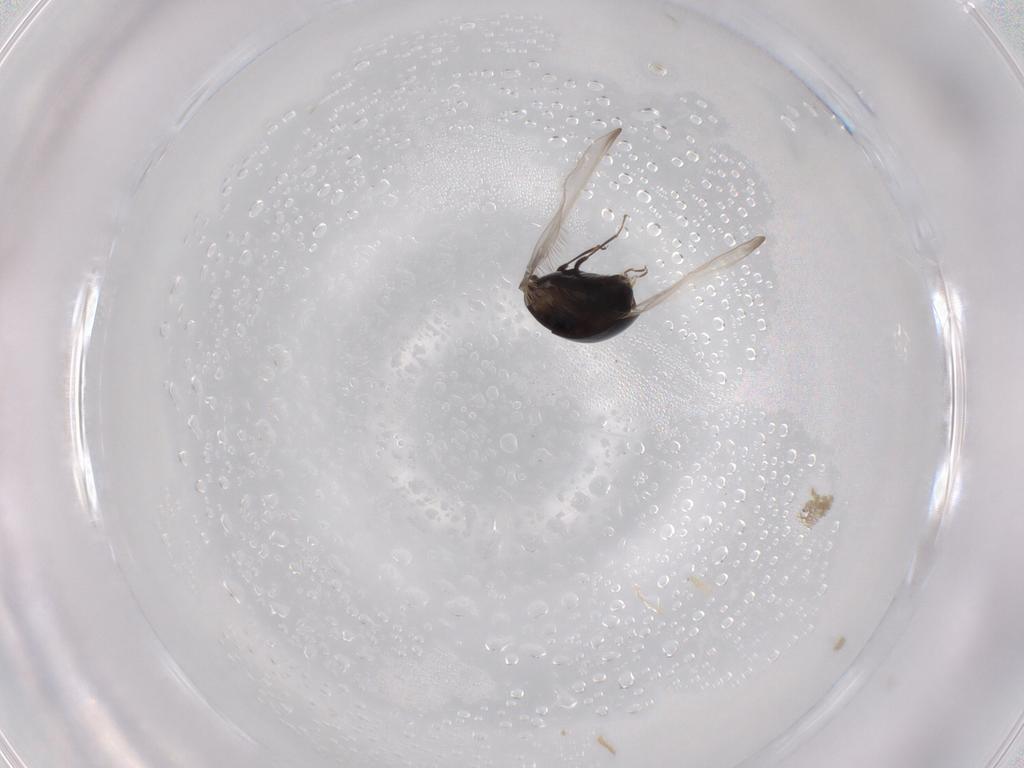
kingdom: Animalia
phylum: Arthropoda
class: Insecta
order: Coleoptera
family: Corylophidae
